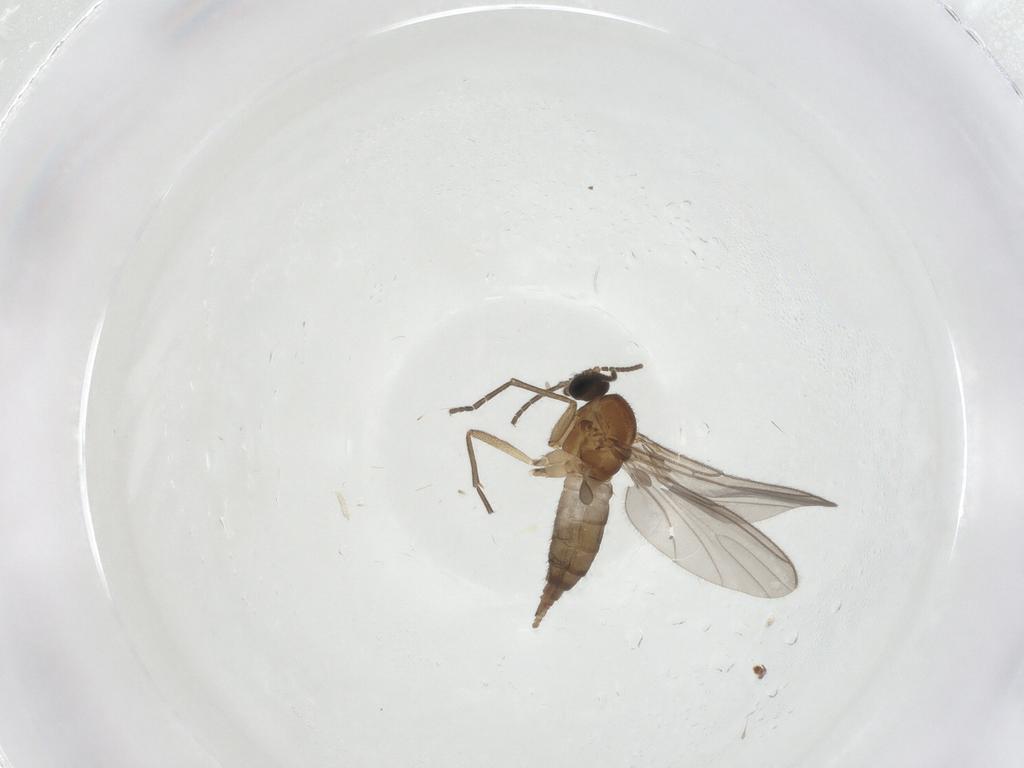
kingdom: Animalia
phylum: Arthropoda
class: Insecta
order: Diptera
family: Sciaridae
